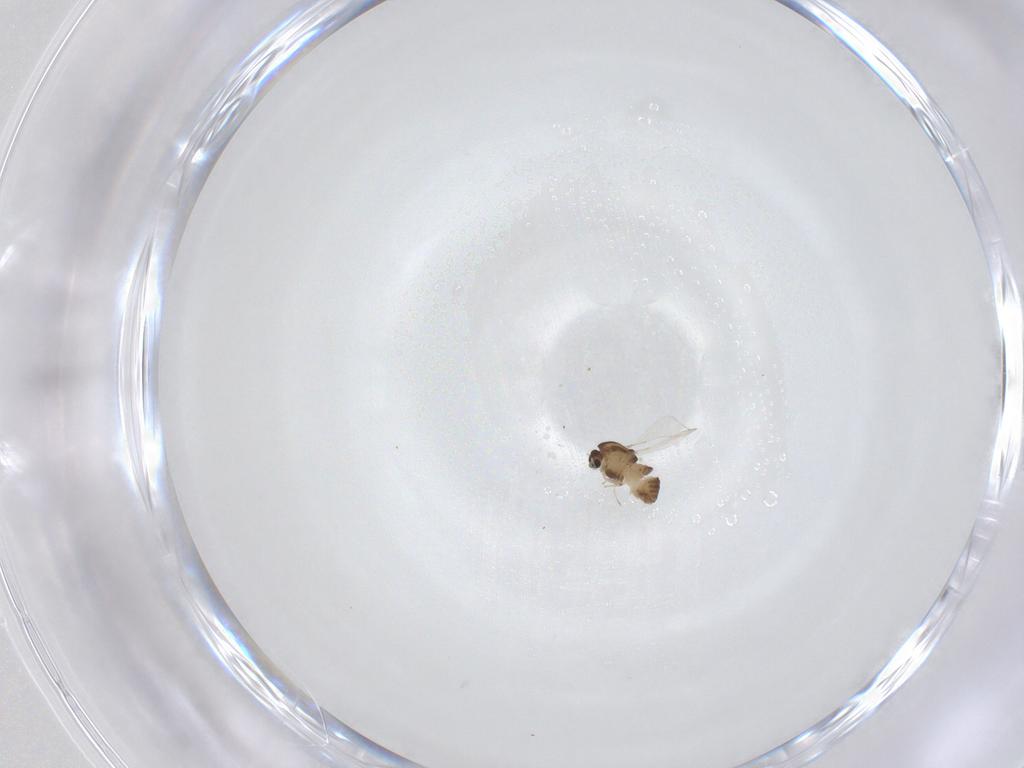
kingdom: Animalia
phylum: Arthropoda
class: Insecta
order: Diptera
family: Chironomidae
